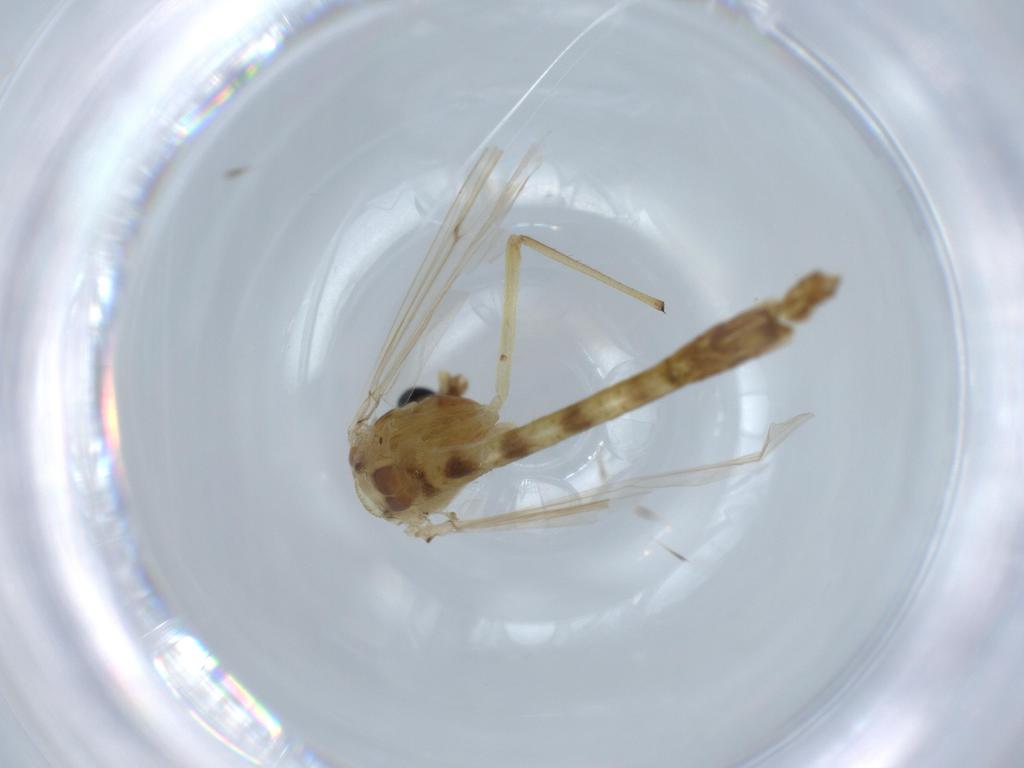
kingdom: Animalia
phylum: Arthropoda
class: Insecta
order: Diptera
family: Chironomidae
